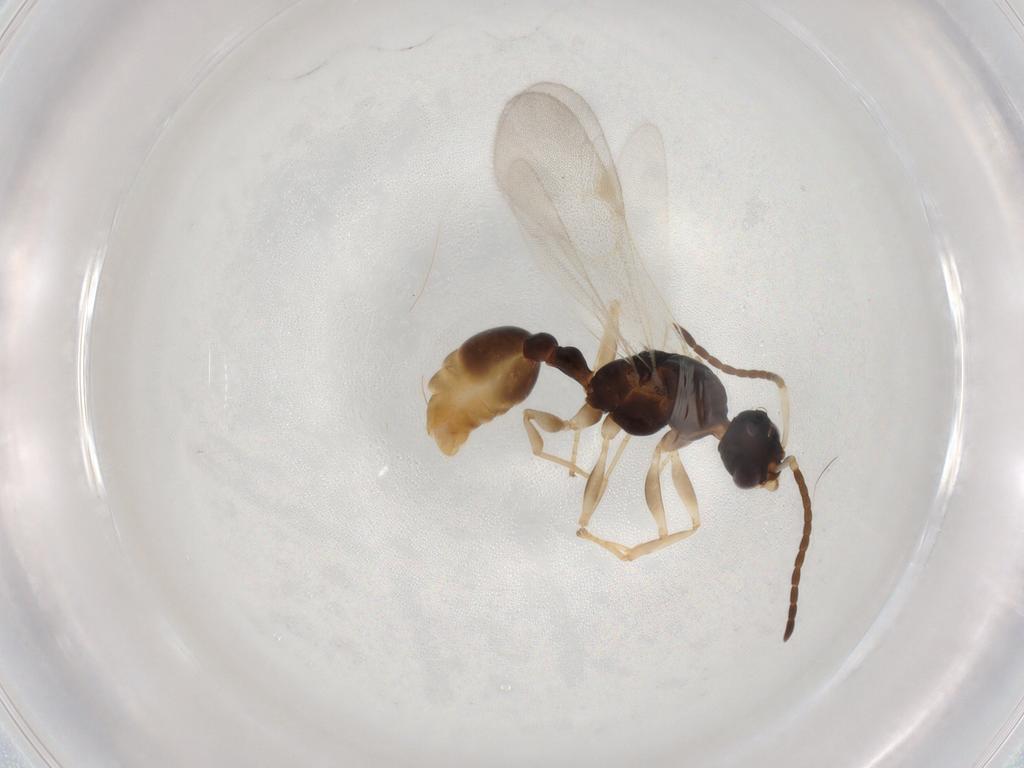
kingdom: Animalia
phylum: Arthropoda
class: Insecta
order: Hymenoptera
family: Formicidae
